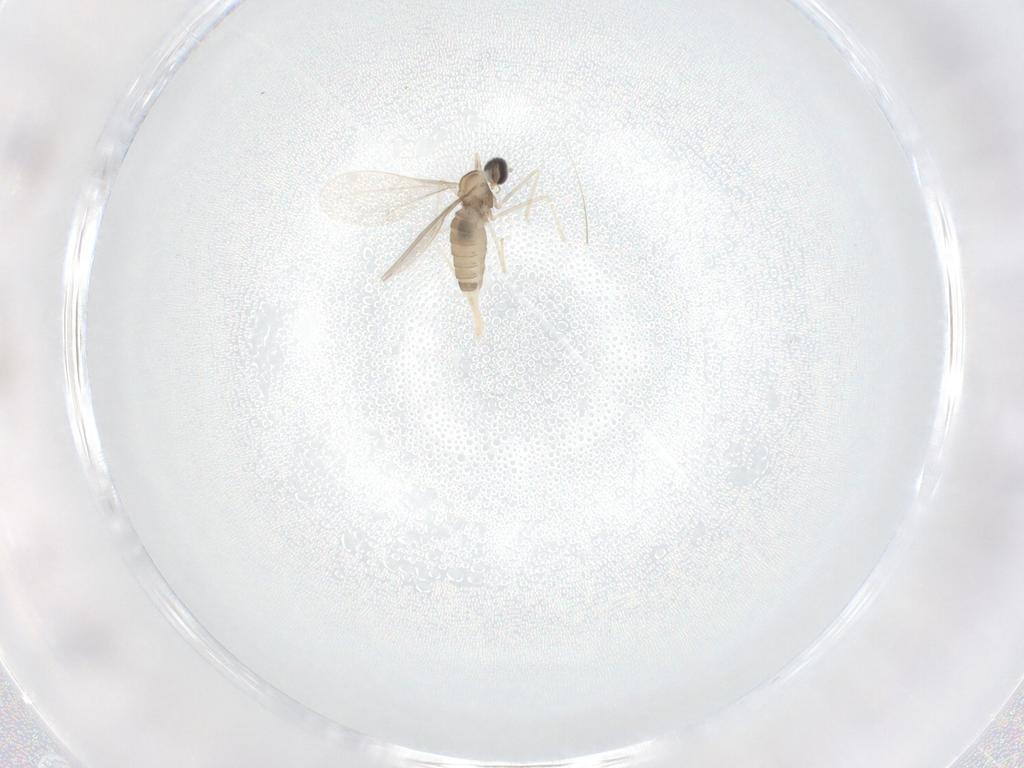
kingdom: Animalia
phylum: Arthropoda
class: Insecta
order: Diptera
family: Cecidomyiidae
